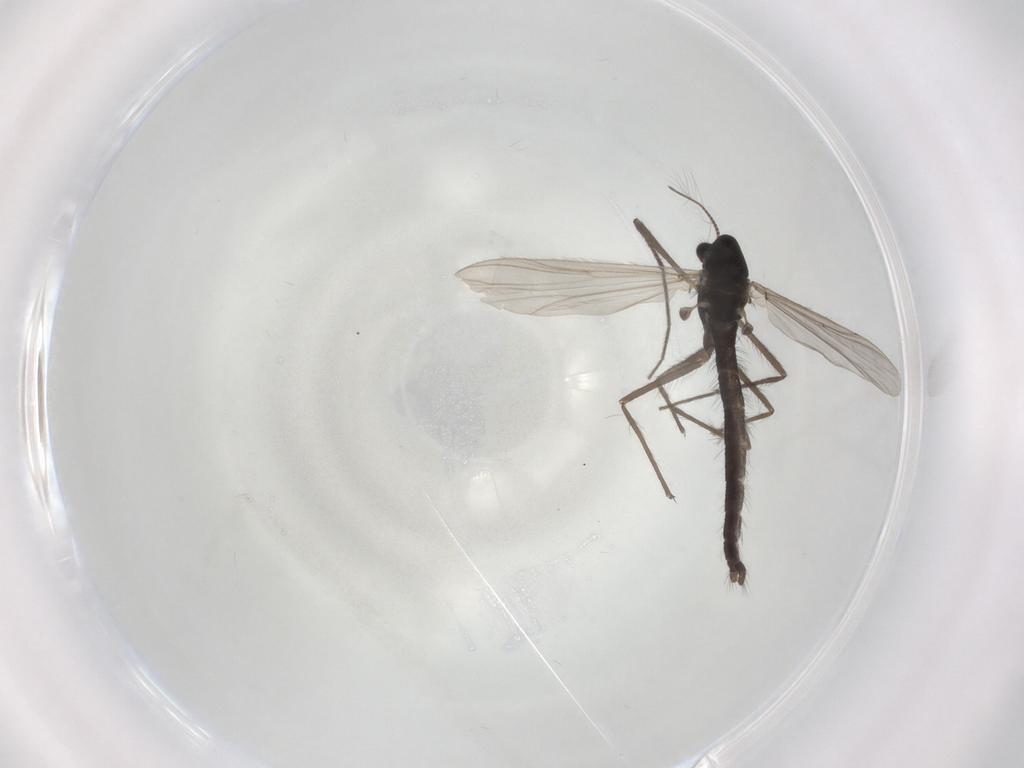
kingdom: Animalia
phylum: Arthropoda
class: Insecta
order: Diptera
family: Chironomidae
